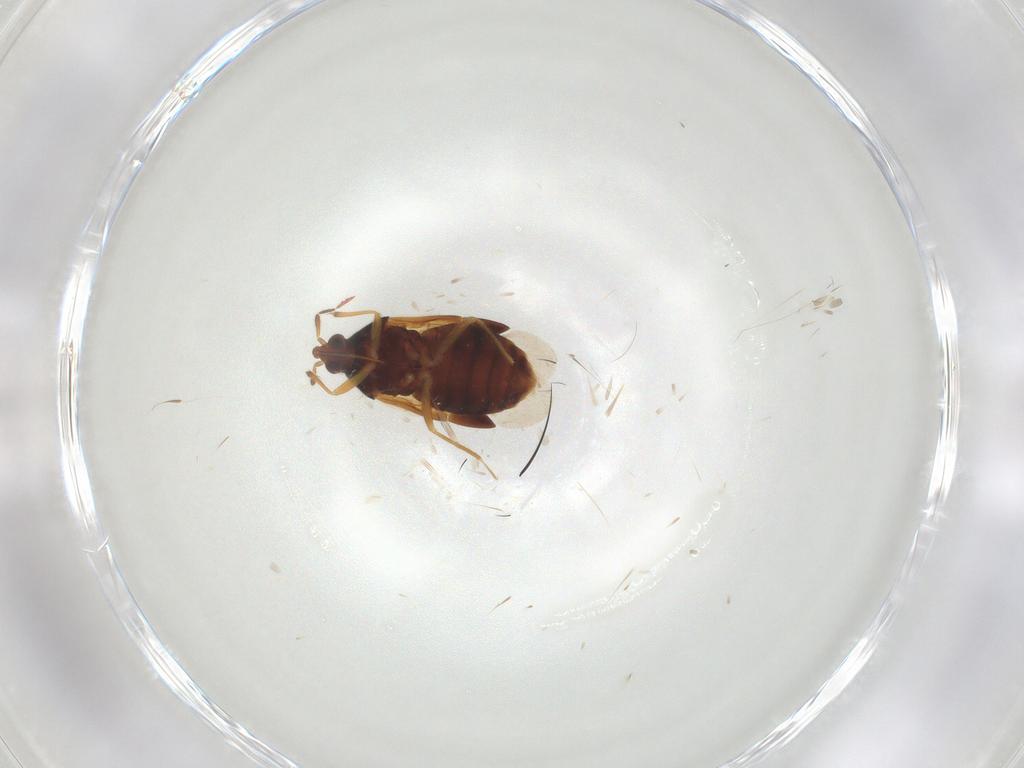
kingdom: Animalia
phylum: Arthropoda
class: Insecta
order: Hemiptera
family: Anthocoridae
